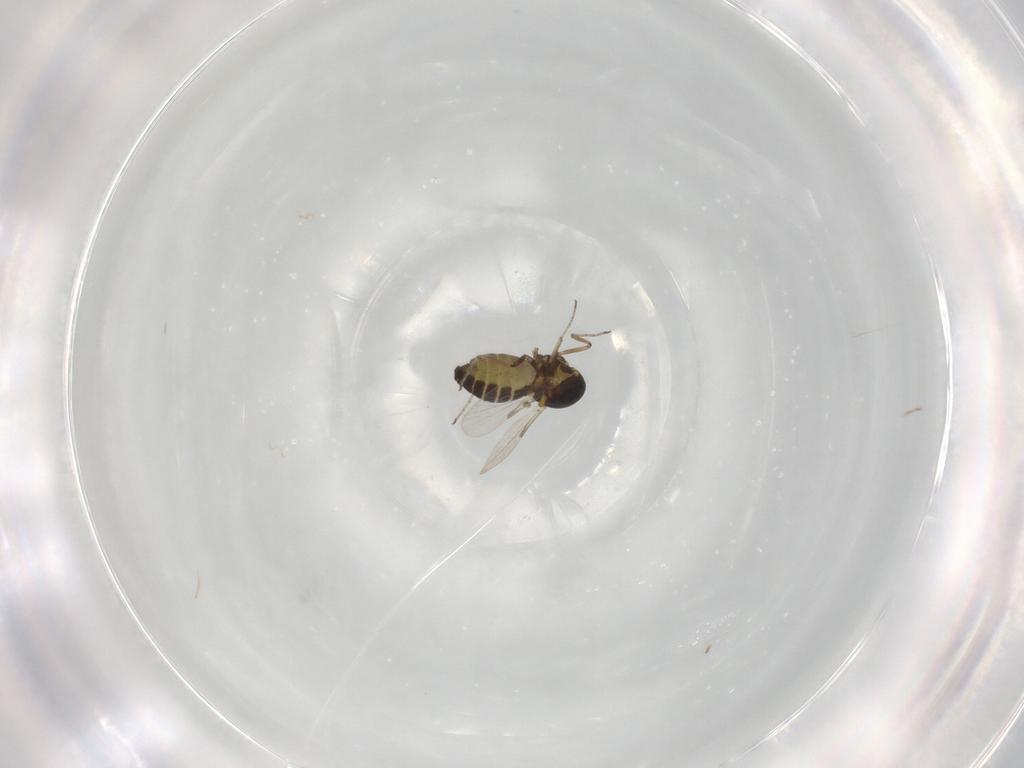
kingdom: Animalia
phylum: Arthropoda
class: Insecta
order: Diptera
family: Ceratopogonidae
